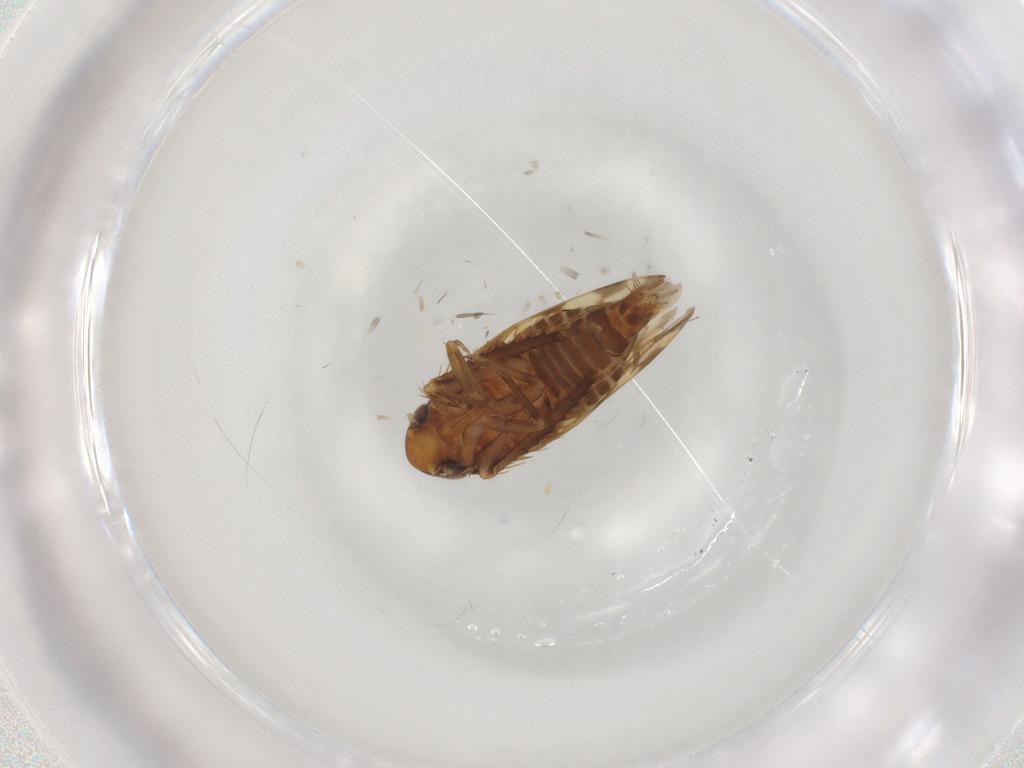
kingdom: Animalia
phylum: Arthropoda
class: Insecta
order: Hemiptera
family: Cicadellidae
